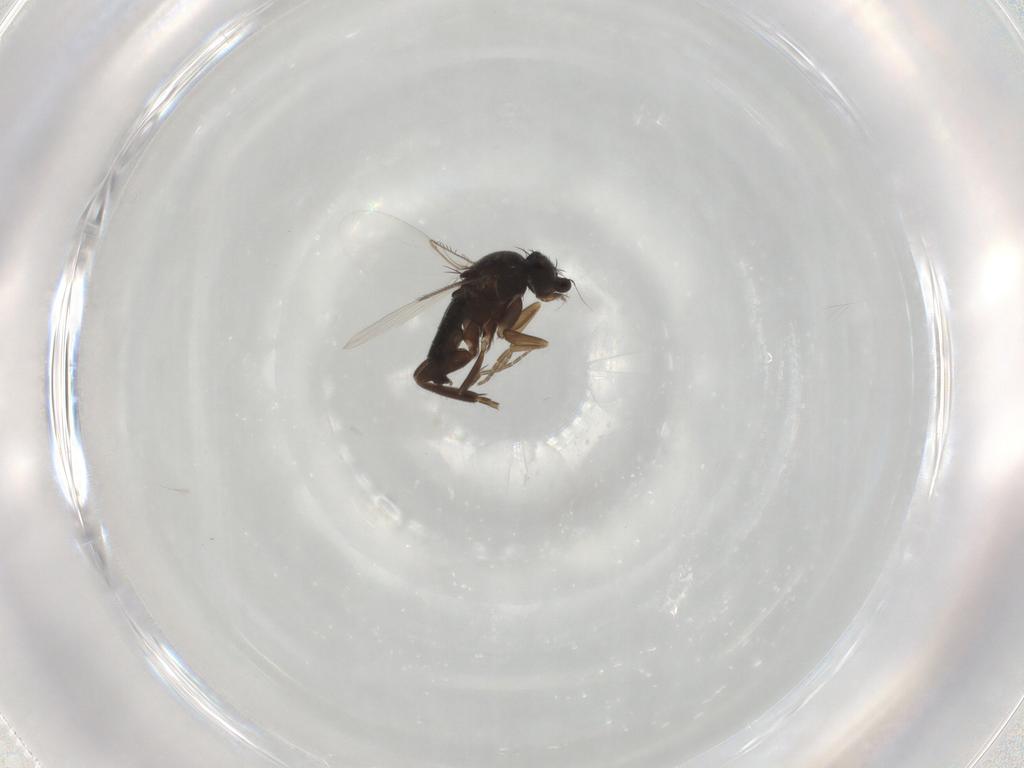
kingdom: Animalia
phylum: Arthropoda
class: Insecta
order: Diptera
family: Phoridae
